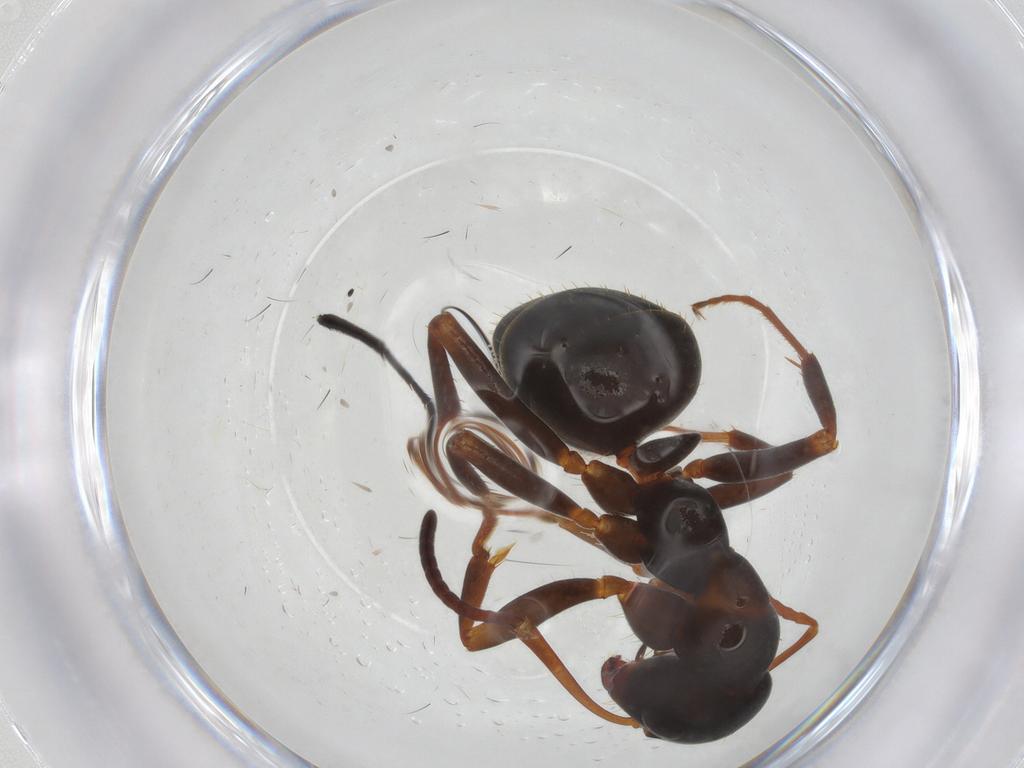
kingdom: Animalia
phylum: Arthropoda
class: Insecta
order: Hymenoptera
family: Formicidae
